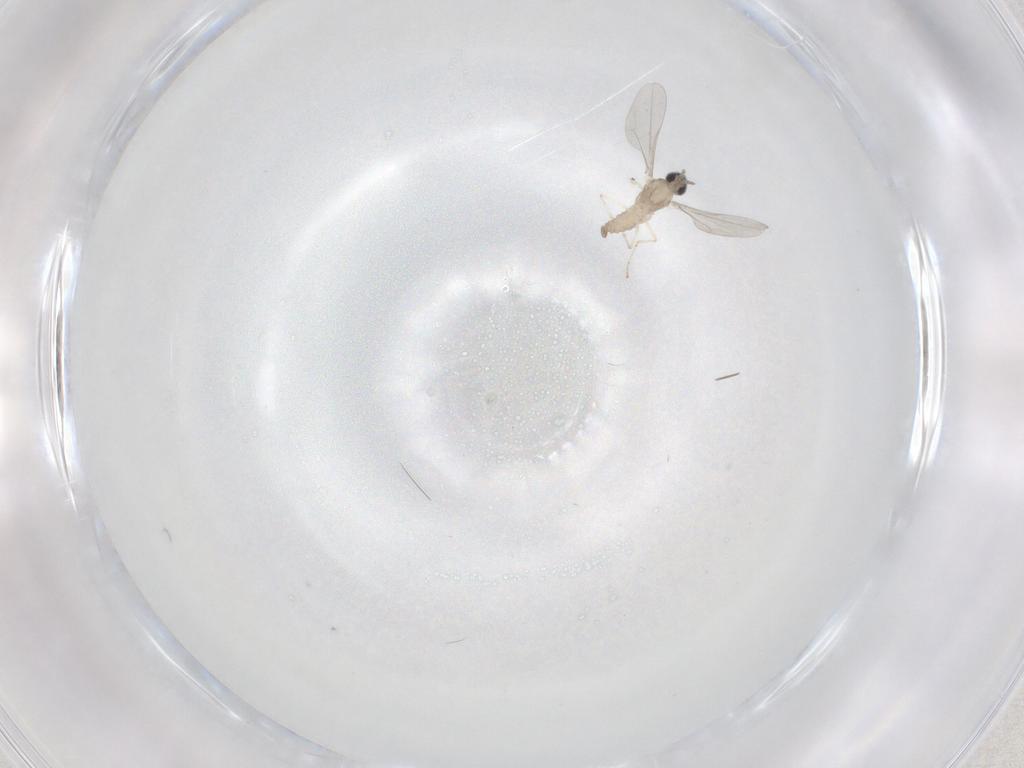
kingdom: Animalia
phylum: Arthropoda
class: Insecta
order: Diptera
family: Cecidomyiidae
